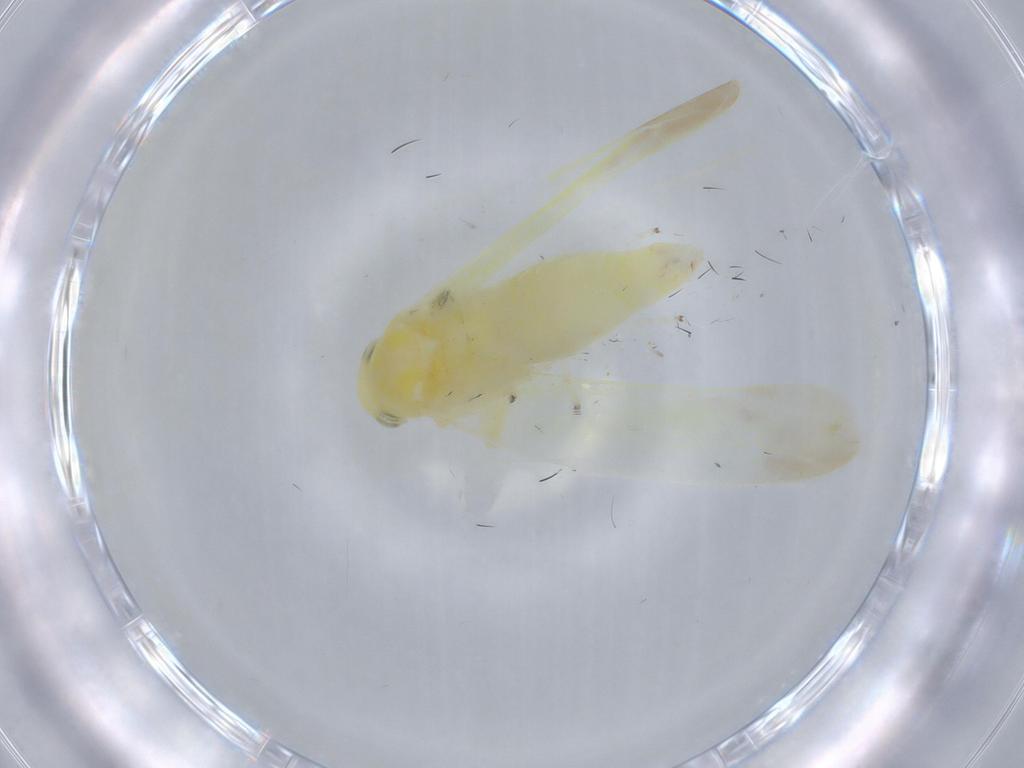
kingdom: Animalia
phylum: Arthropoda
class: Insecta
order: Hemiptera
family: Cicadellidae
